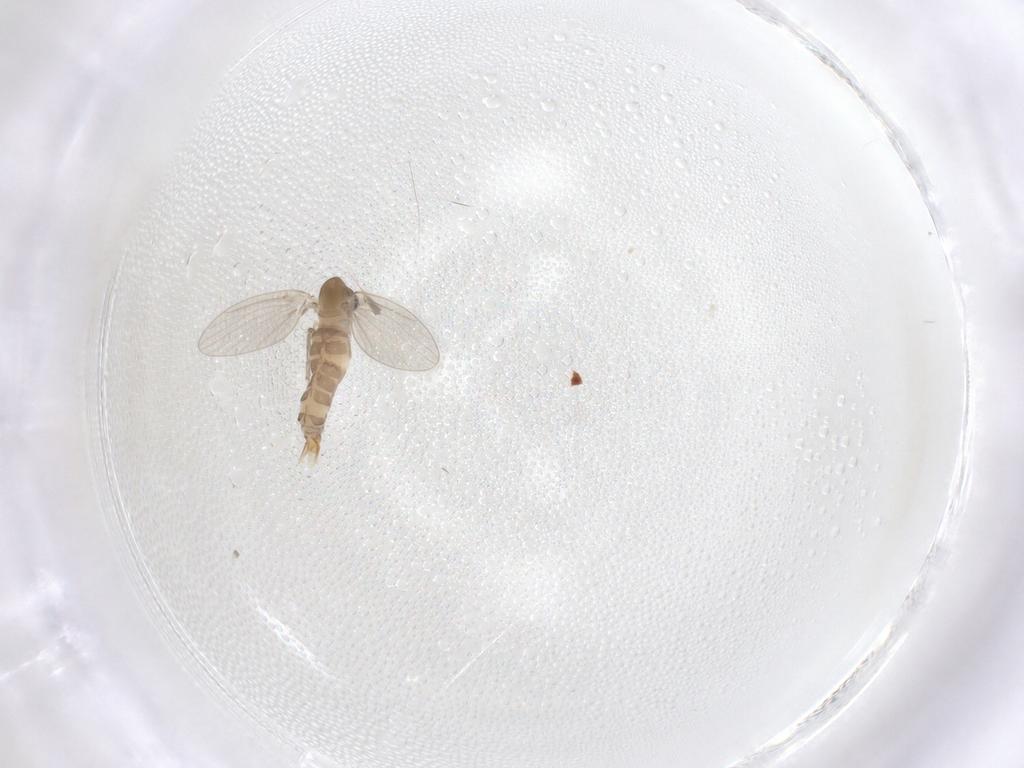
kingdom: Animalia
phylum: Arthropoda
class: Insecta
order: Diptera
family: Psychodidae
